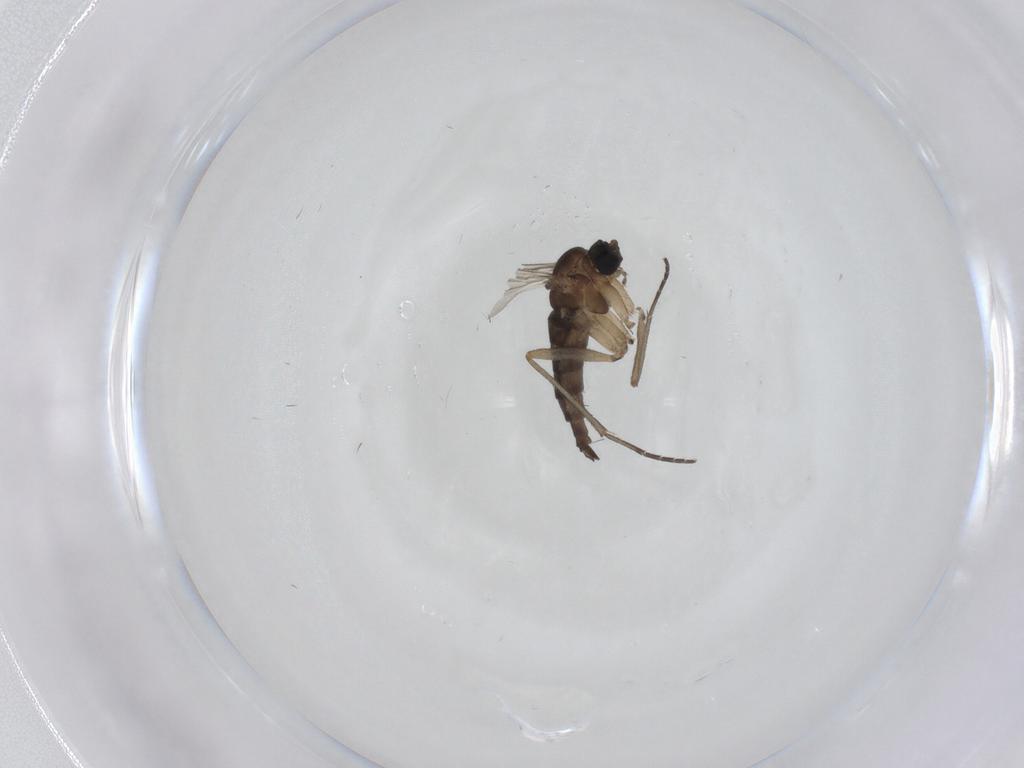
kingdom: Animalia
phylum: Arthropoda
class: Insecta
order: Diptera
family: Sciaridae
